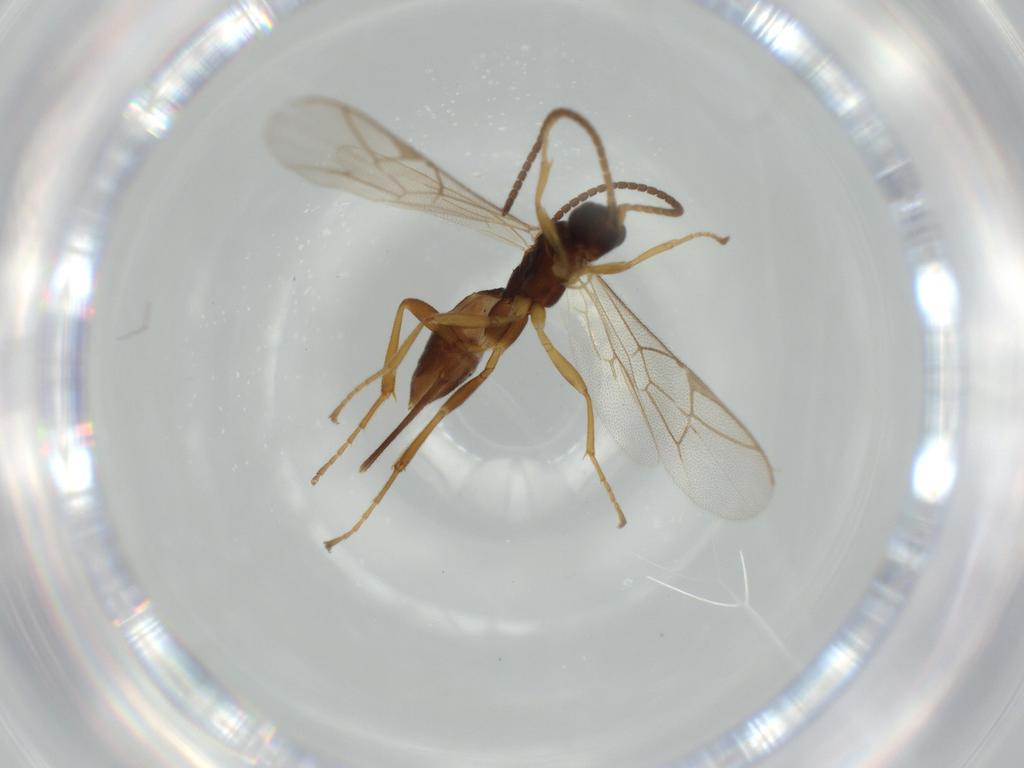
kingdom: Animalia
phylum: Arthropoda
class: Insecta
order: Hymenoptera
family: Ichneumonidae
